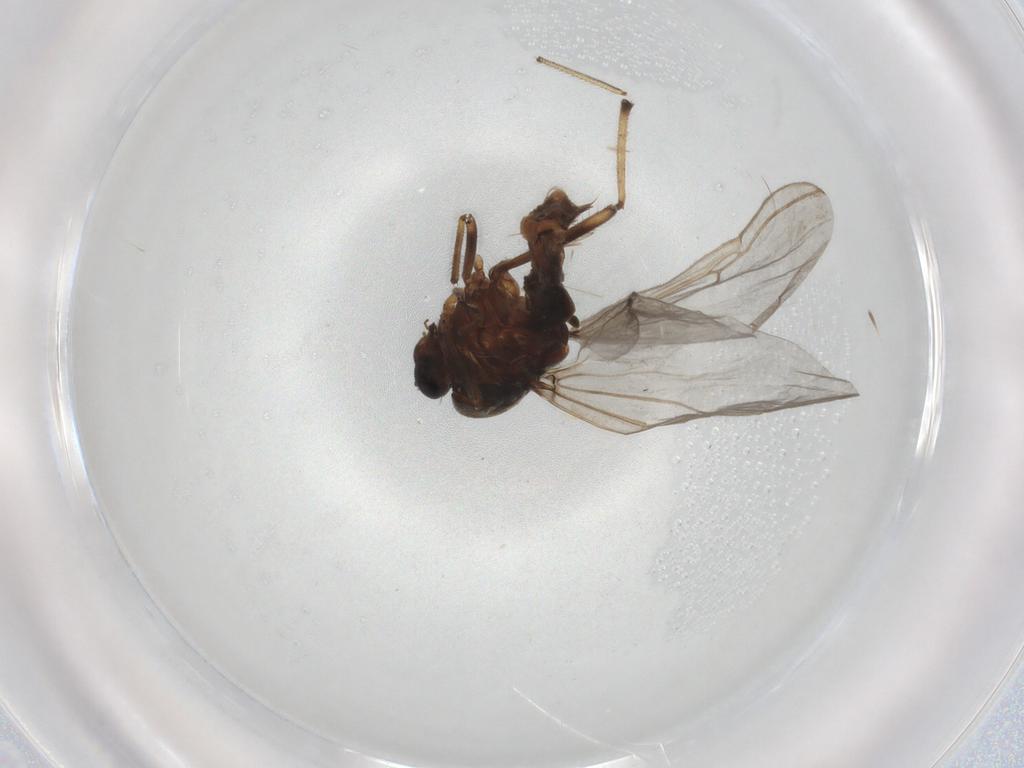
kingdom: Animalia
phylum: Arthropoda
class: Insecta
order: Diptera
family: Ceratopogonidae
